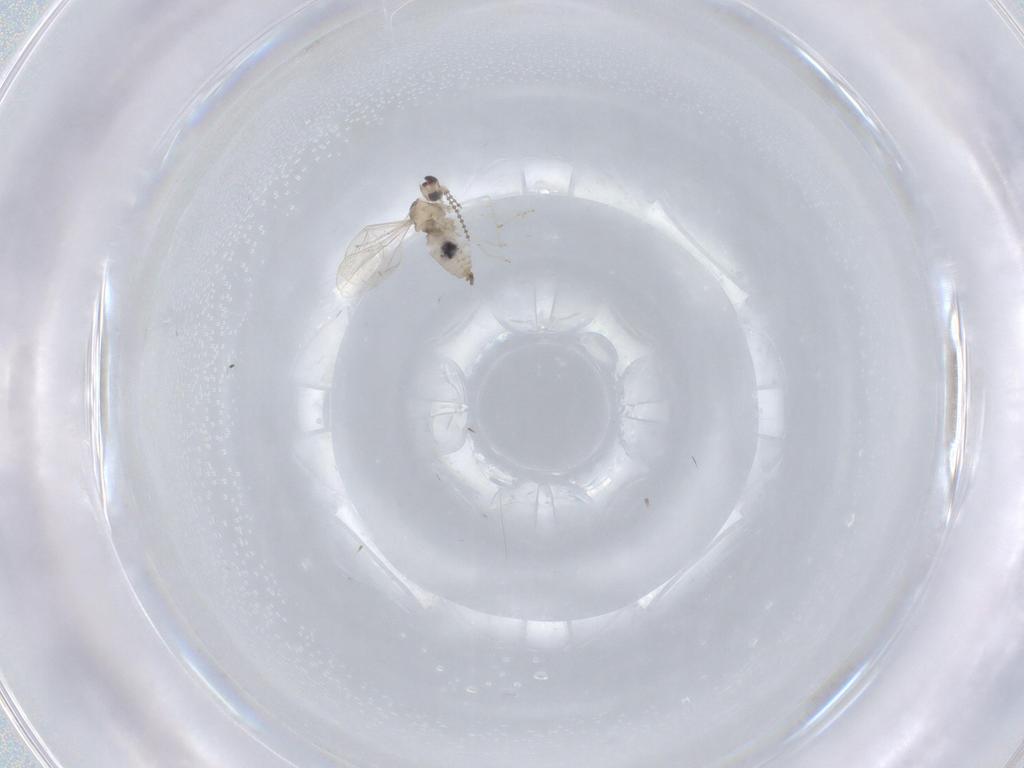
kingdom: Animalia
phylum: Arthropoda
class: Insecta
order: Diptera
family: Cecidomyiidae
